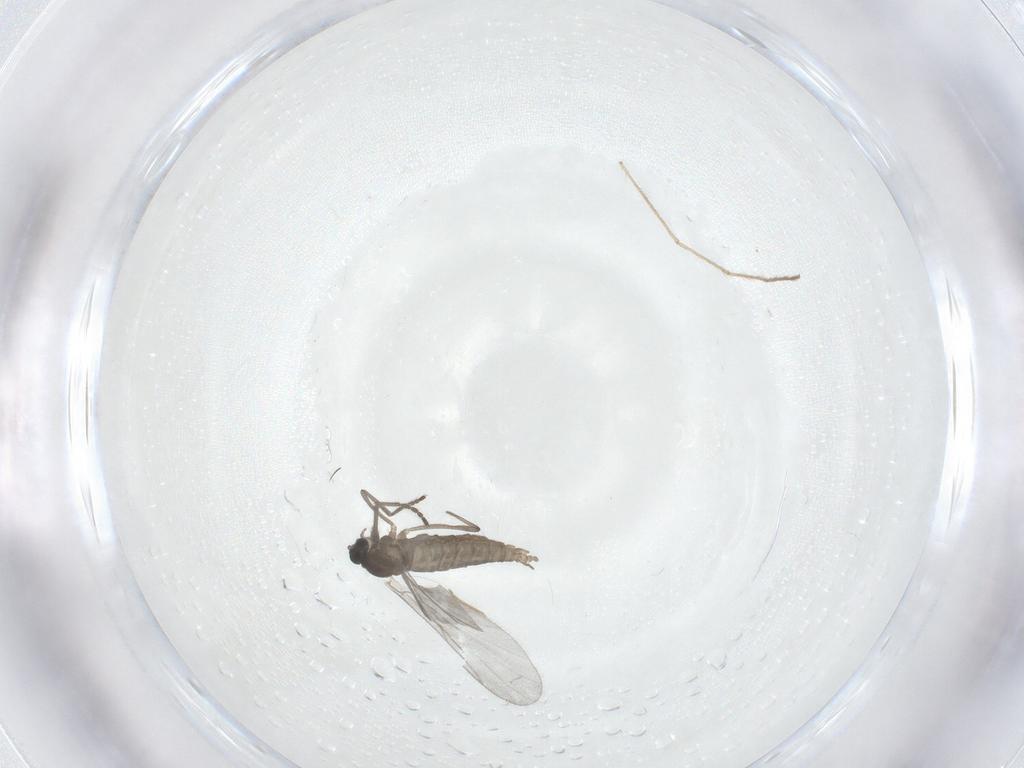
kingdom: Animalia
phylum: Arthropoda
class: Insecta
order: Diptera
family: Cecidomyiidae
